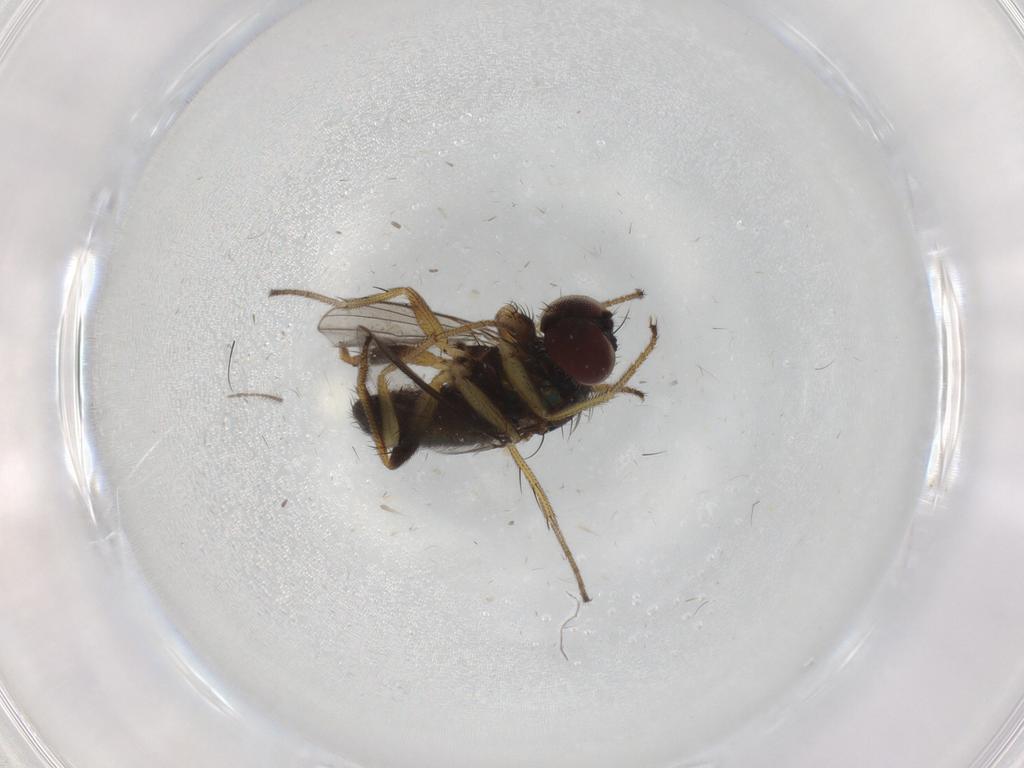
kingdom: Animalia
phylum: Arthropoda
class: Insecta
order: Diptera
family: Dolichopodidae
